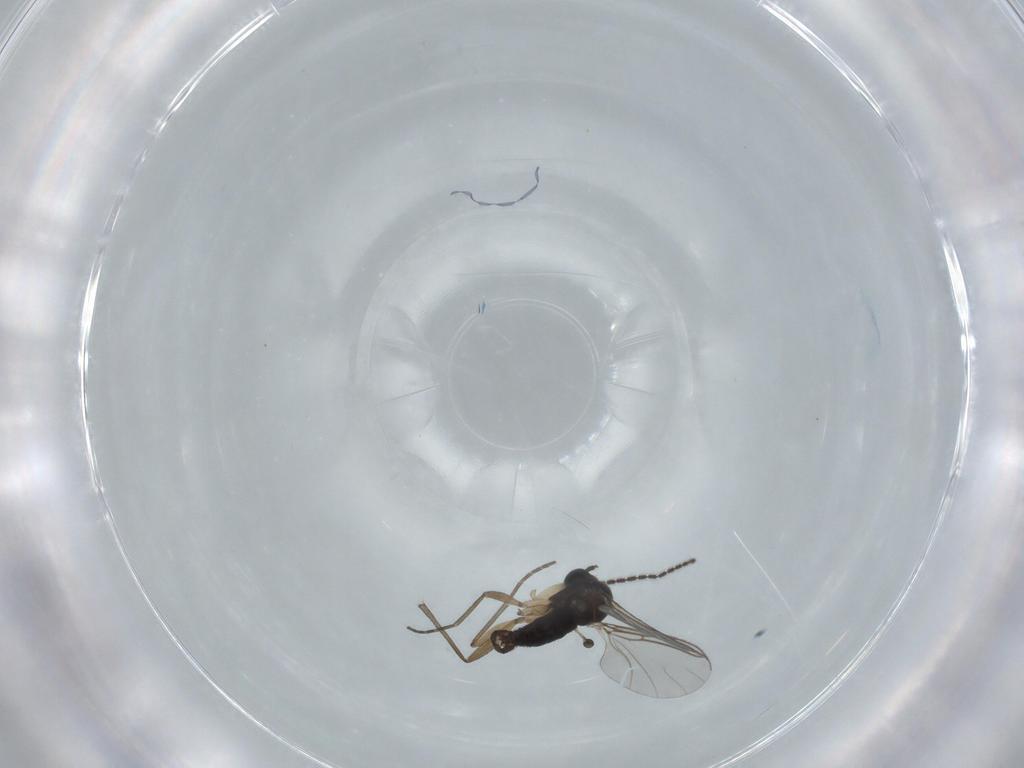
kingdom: Animalia
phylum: Arthropoda
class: Insecta
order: Diptera
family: Sciaridae
